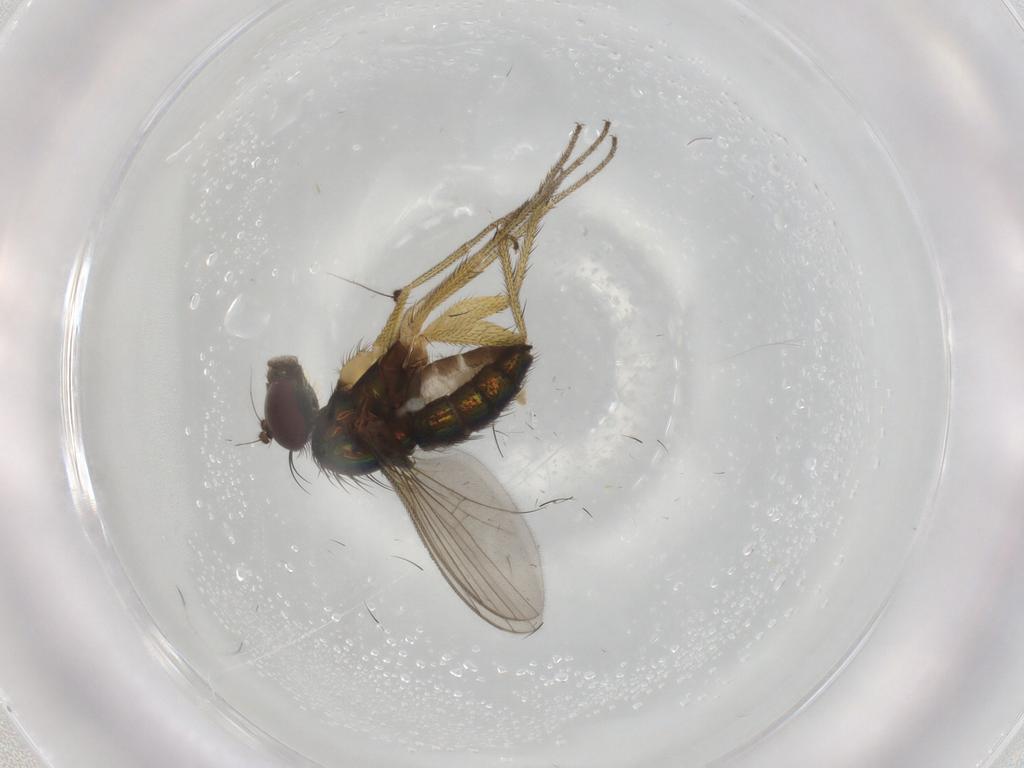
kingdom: Animalia
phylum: Arthropoda
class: Insecta
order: Diptera
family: Dolichopodidae
